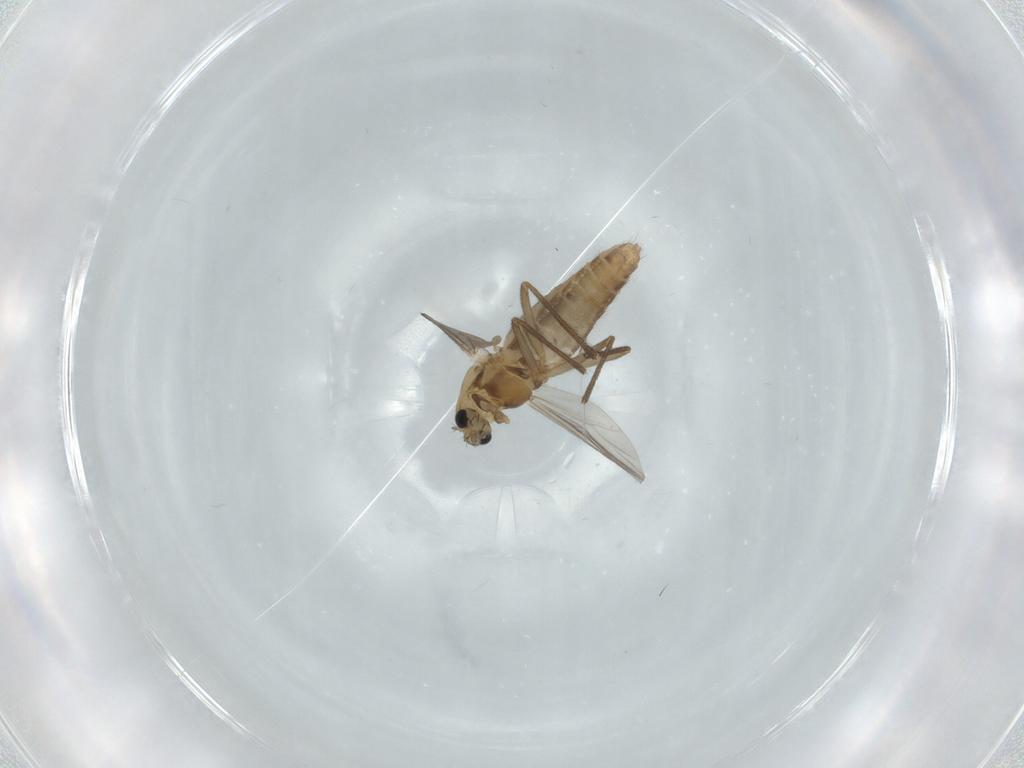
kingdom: Animalia
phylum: Arthropoda
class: Insecta
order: Diptera
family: Chironomidae
